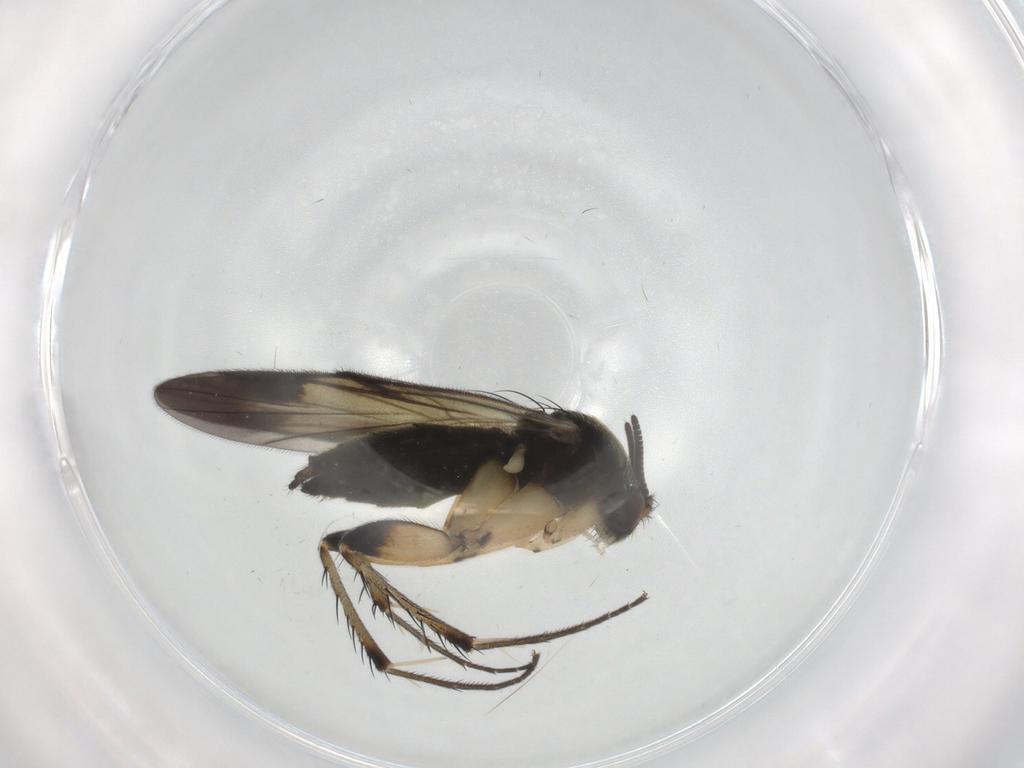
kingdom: Animalia
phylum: Arthropoda
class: Insecta
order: Diptera
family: Mycetophilidae
